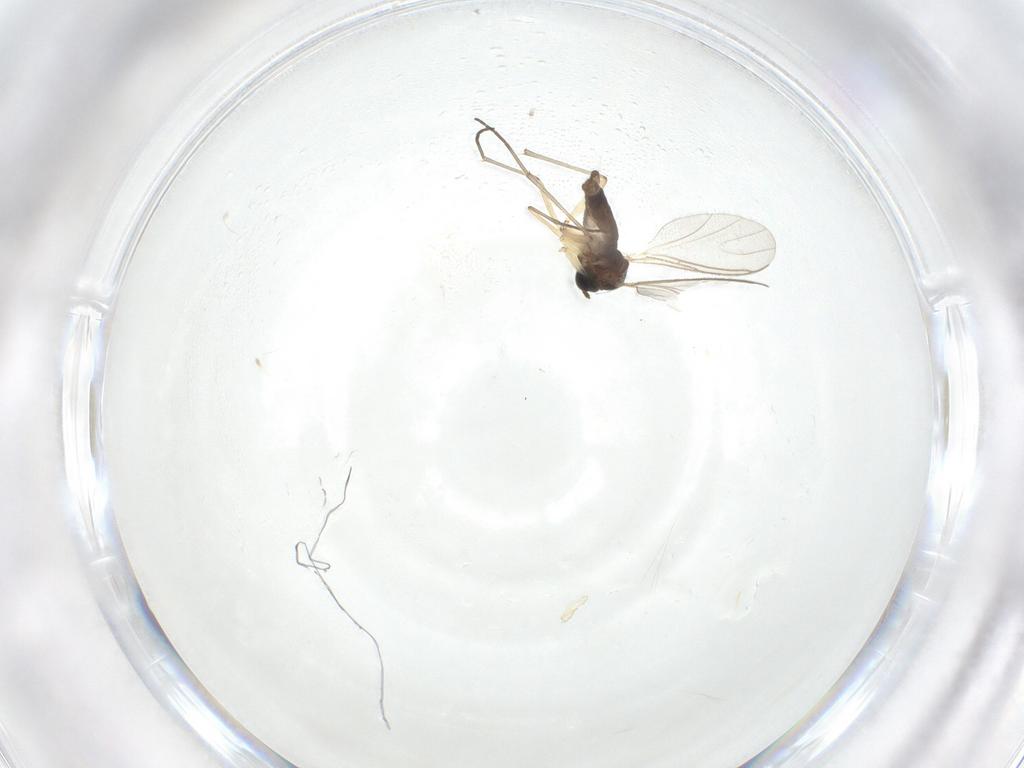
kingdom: Animalia
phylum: Arthropoda
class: Insecta
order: Diptera
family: Sciaridae
